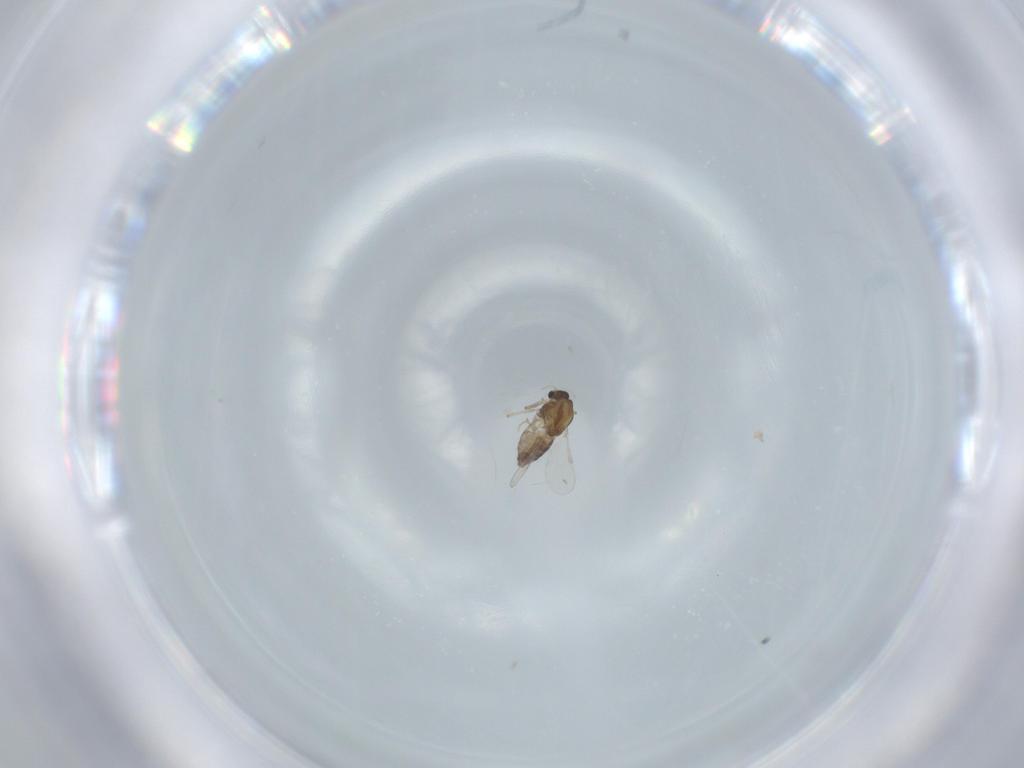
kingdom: Animalia
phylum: Arthropoda
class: Insecta
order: Diptera
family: Chironomidae
